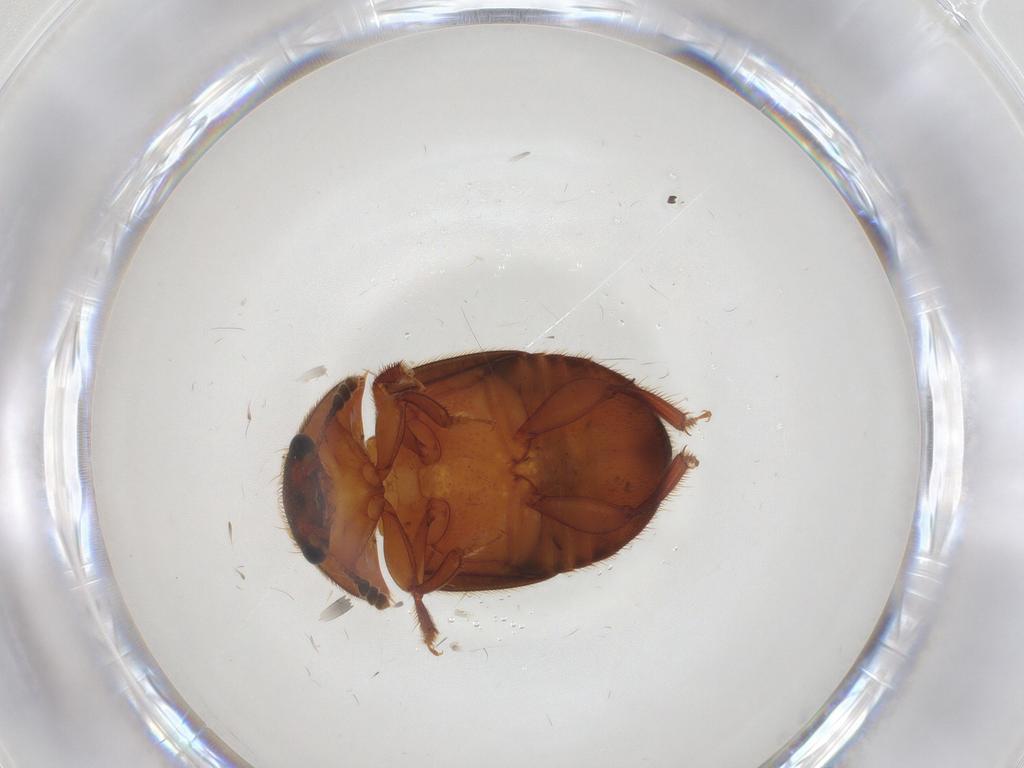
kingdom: Animalia
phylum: Arthropoda
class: Insecta
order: Coleoptera
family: Nitidulidae
